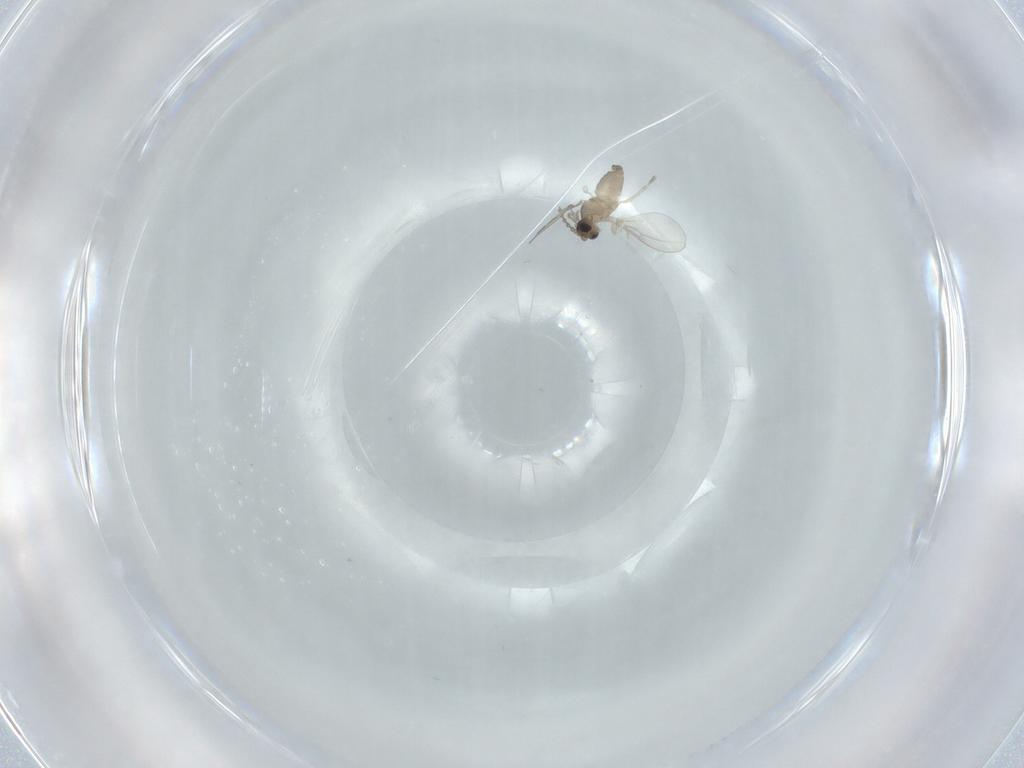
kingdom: Animalia
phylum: Arthropoda
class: Insecta
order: Diptera
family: Cecidomyiidae
